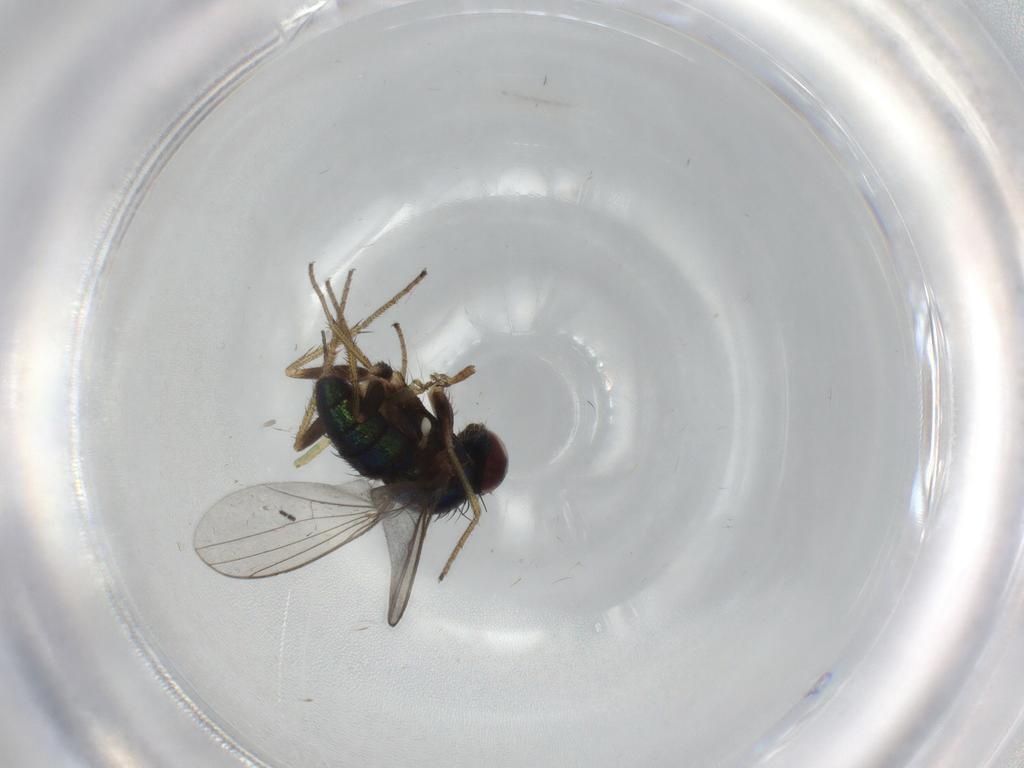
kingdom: Animalia
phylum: Arthropoda
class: Insecta
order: Diptera
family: Chironomidae
